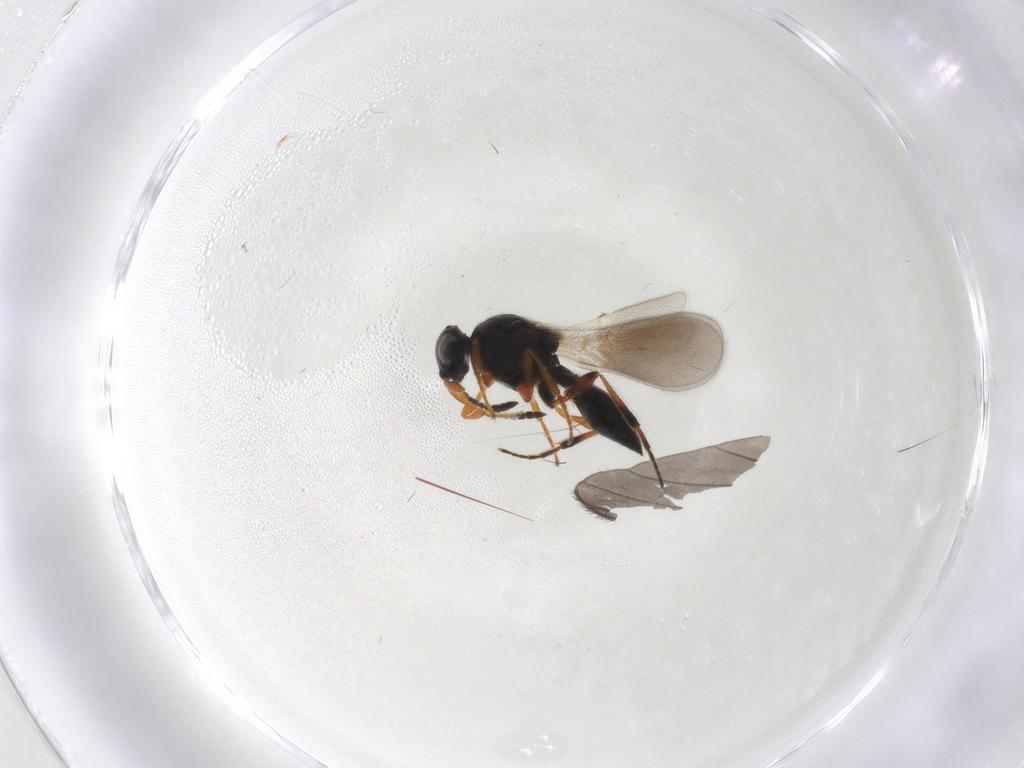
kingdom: Animalia
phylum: Arthropoda
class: Insecta
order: Hymenoptera
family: Platygastridae
